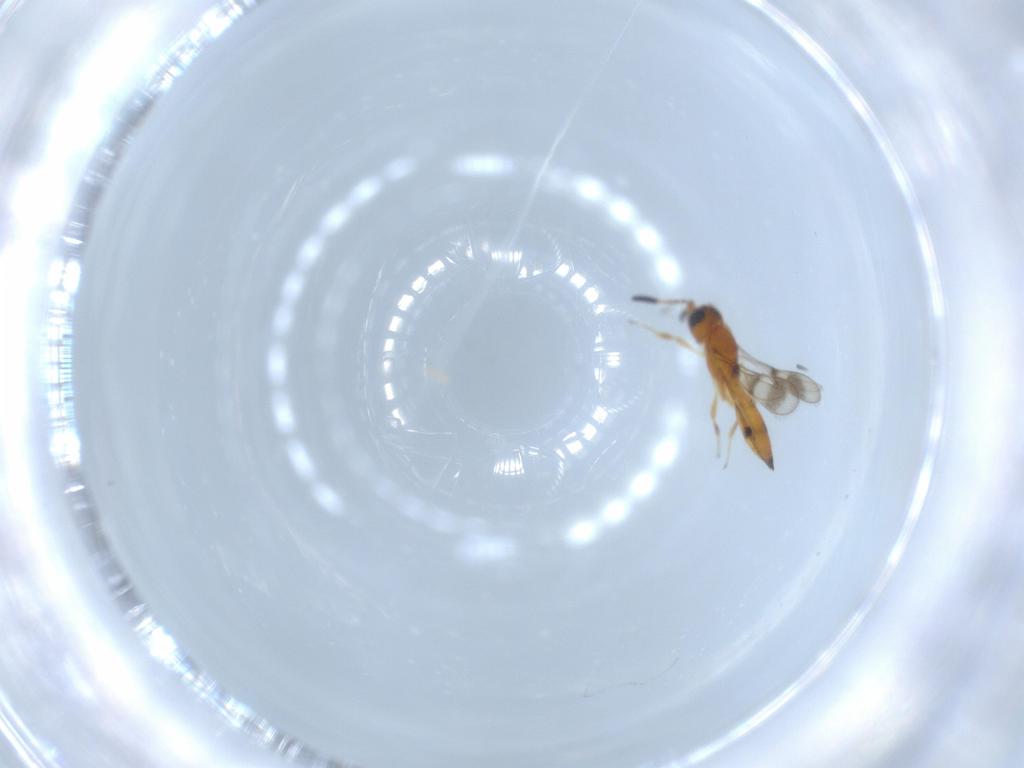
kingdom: Animalia
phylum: Arthropoda
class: Insecta
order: Hymenoptera
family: Scelionidae
